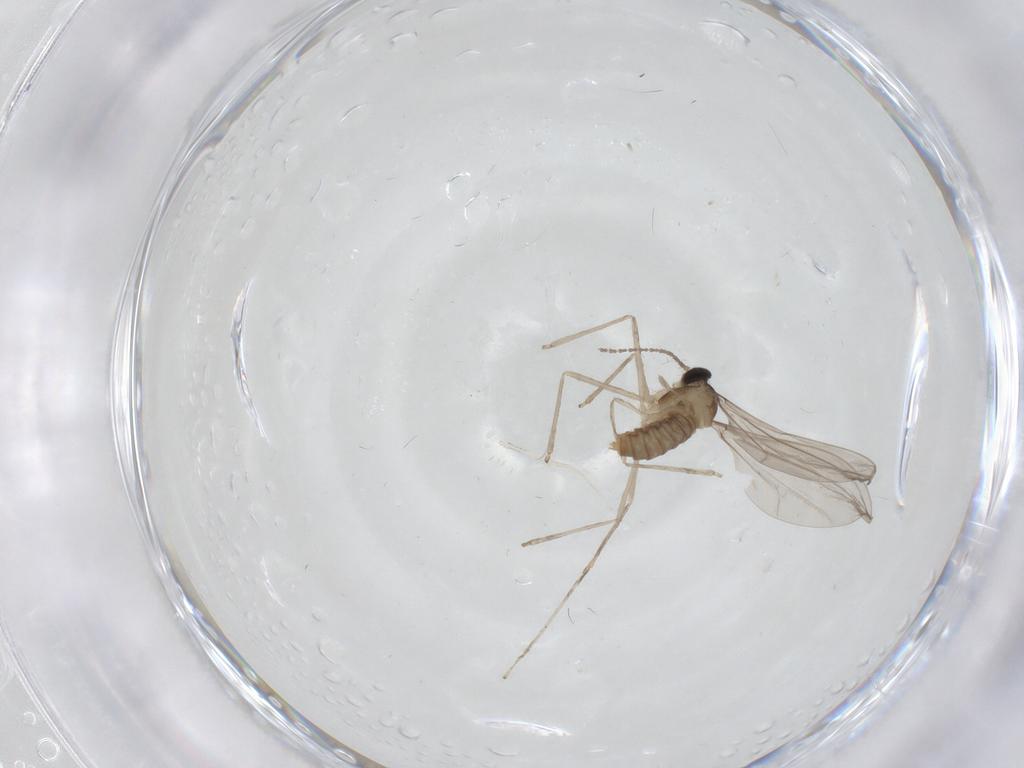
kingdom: Animalia
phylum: Arthropoda
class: Insecta
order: Diptera
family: Cecidomyiidae
